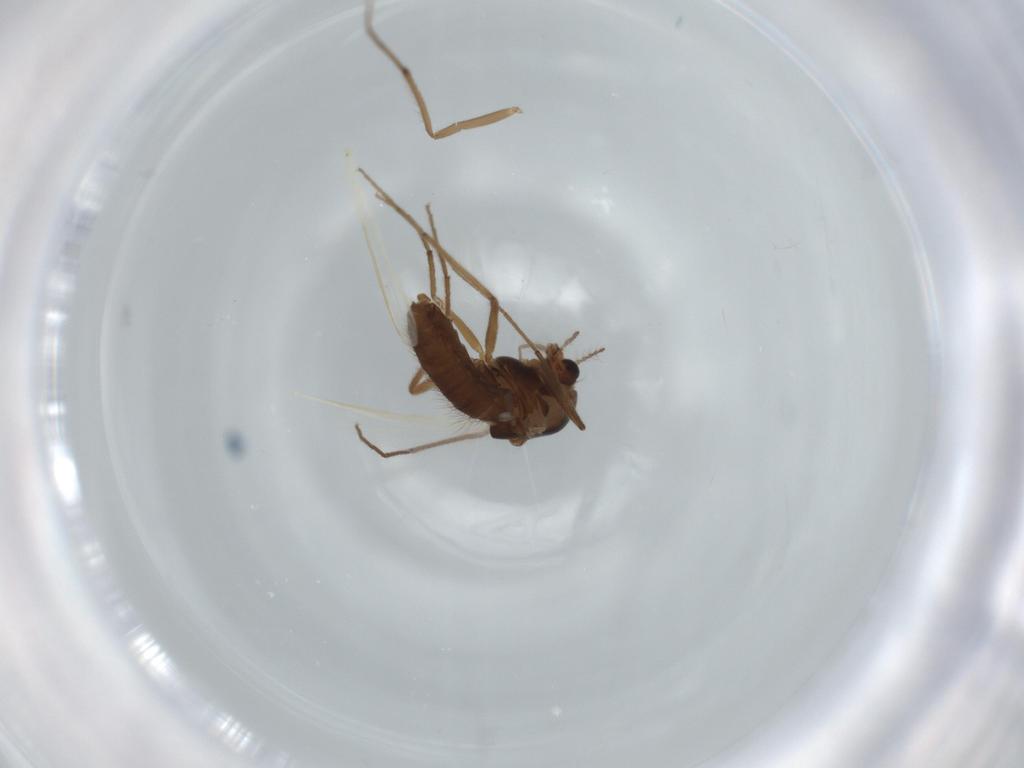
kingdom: Animalia
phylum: Arthropoda
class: Insecta
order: Diptera
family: Chironomidae
